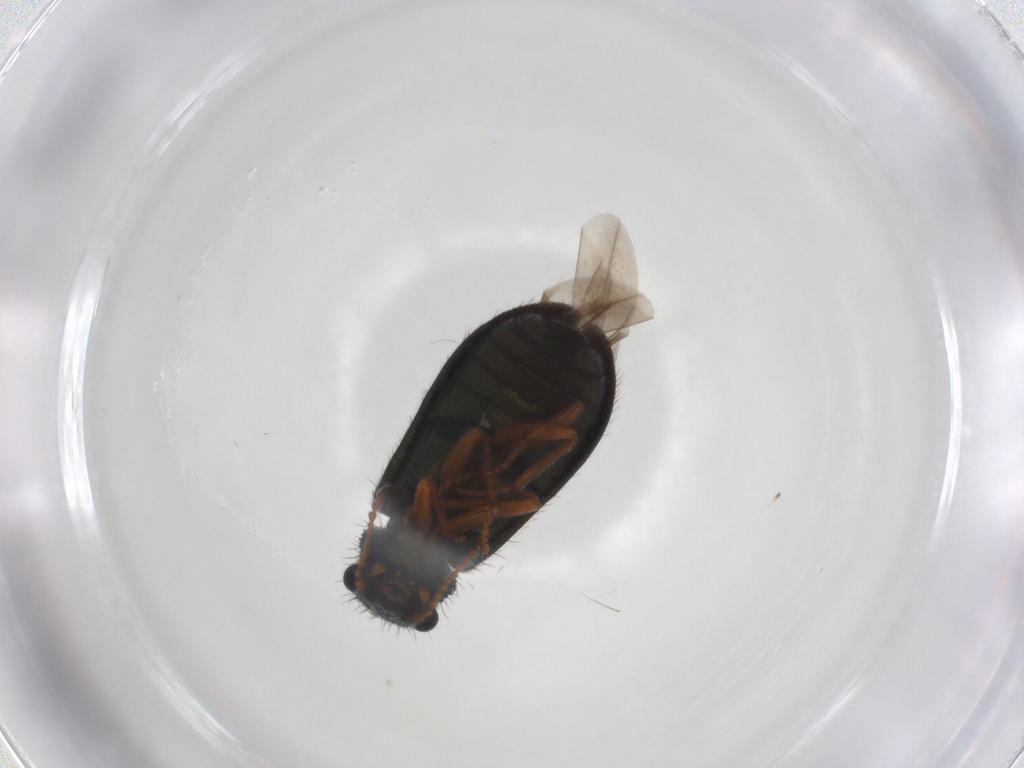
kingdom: Animalia
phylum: Arthropoda
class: Insecta
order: Coleoptera
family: Melyridae
